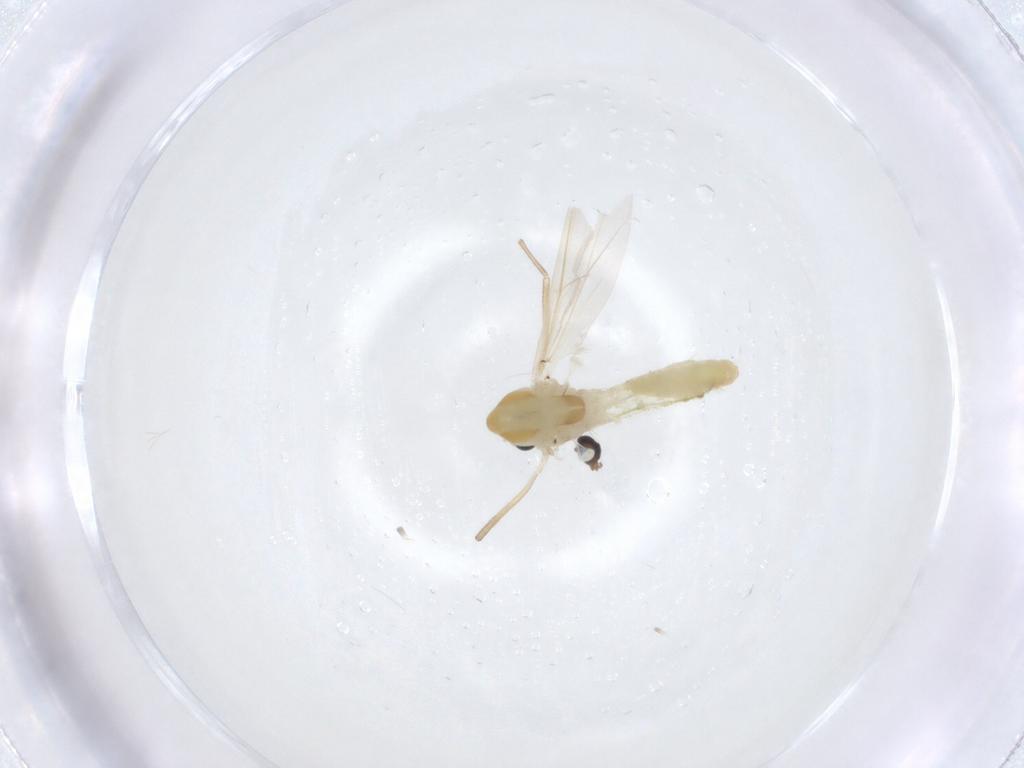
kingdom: Animalia
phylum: Arthropoda
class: Insecta
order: Diptera
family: Chironomidae
